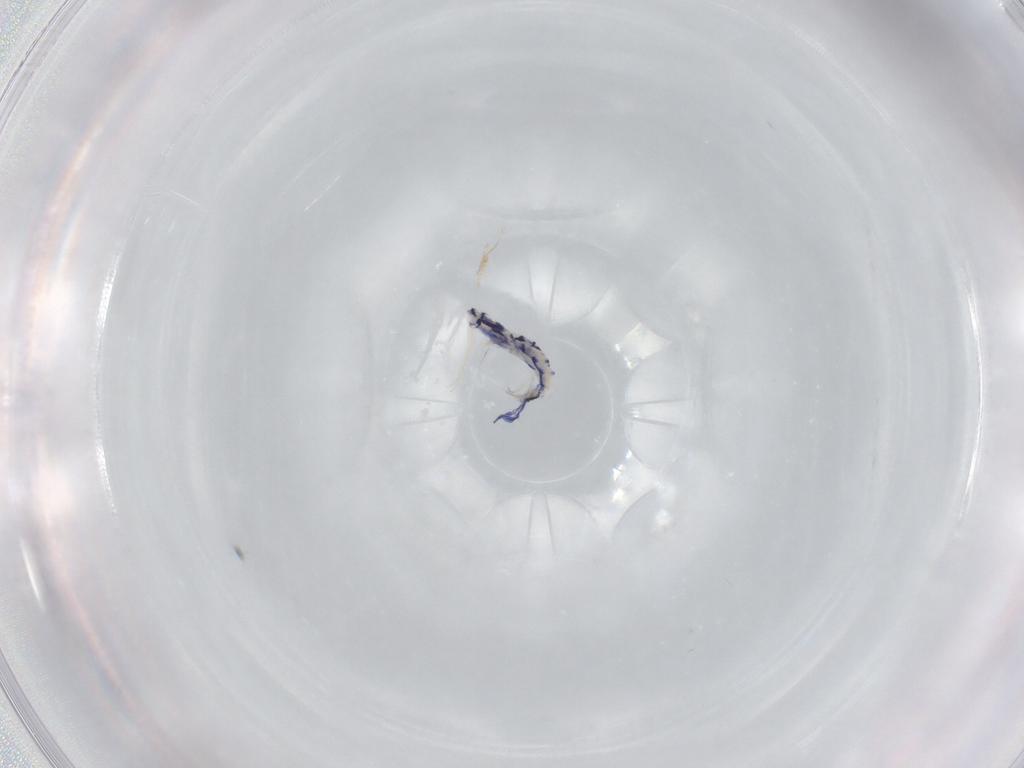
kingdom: Animalia
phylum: Arthropoda
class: Collembola
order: Entomobryomorpha
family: Entomobryidae
